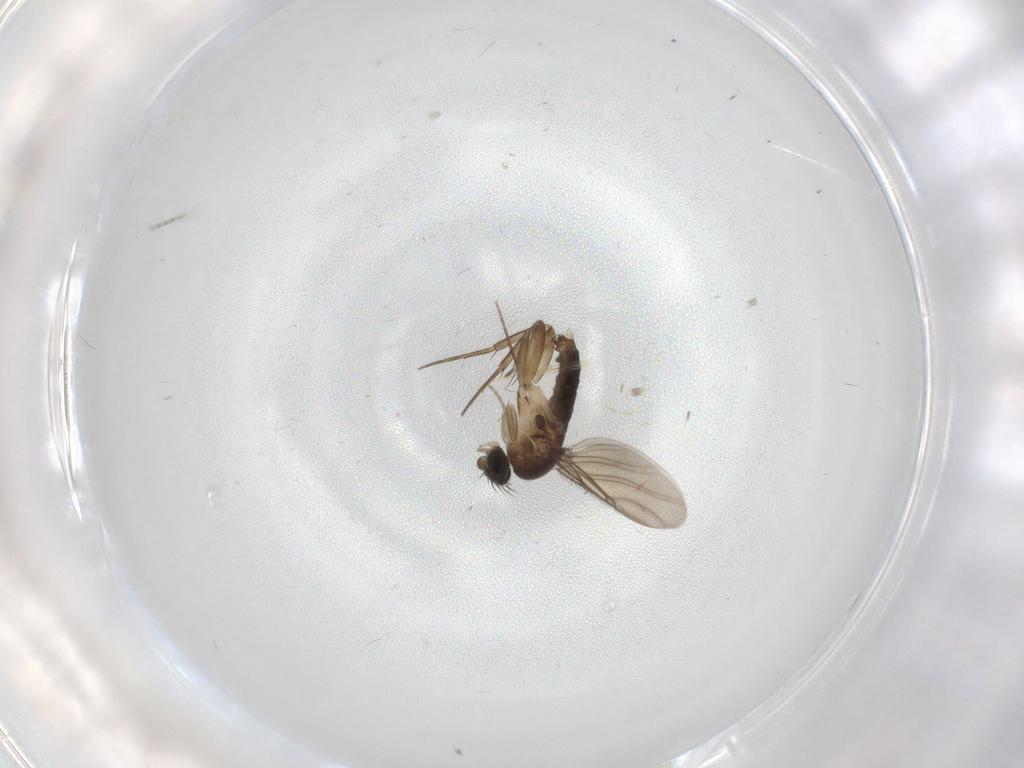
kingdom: Animalia
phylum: Arthropoda
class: Insecta
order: Diptera
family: Phoridae
